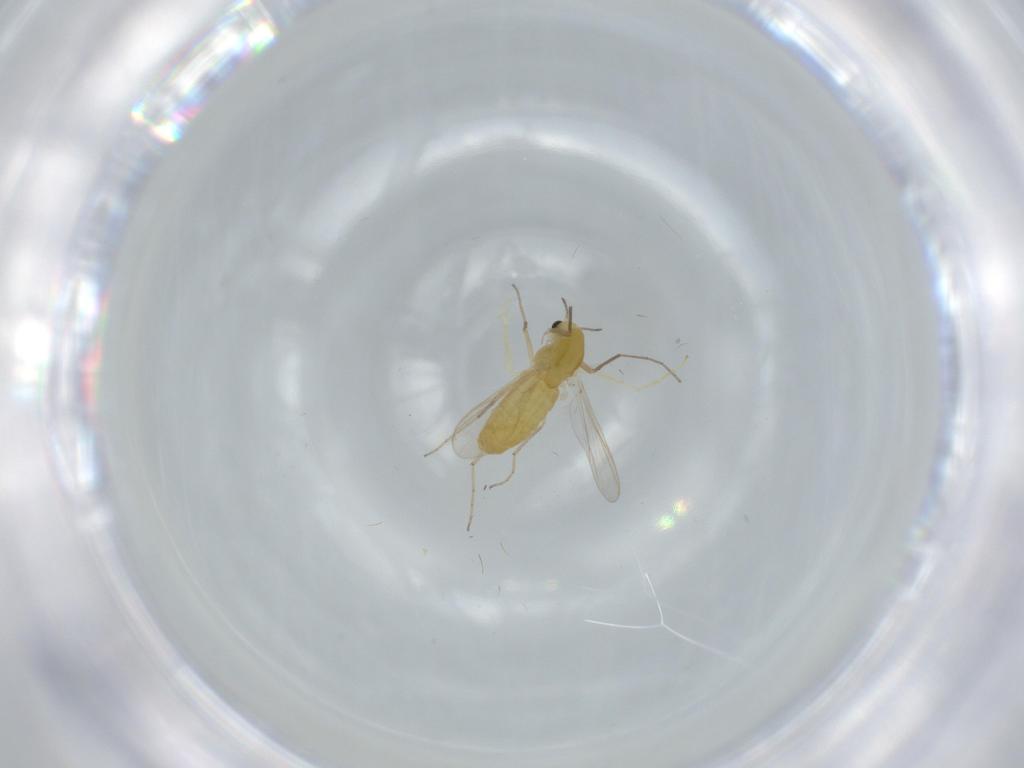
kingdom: Animalia
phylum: Arthropoda
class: Insecta
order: Diptera
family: Chironomidae
